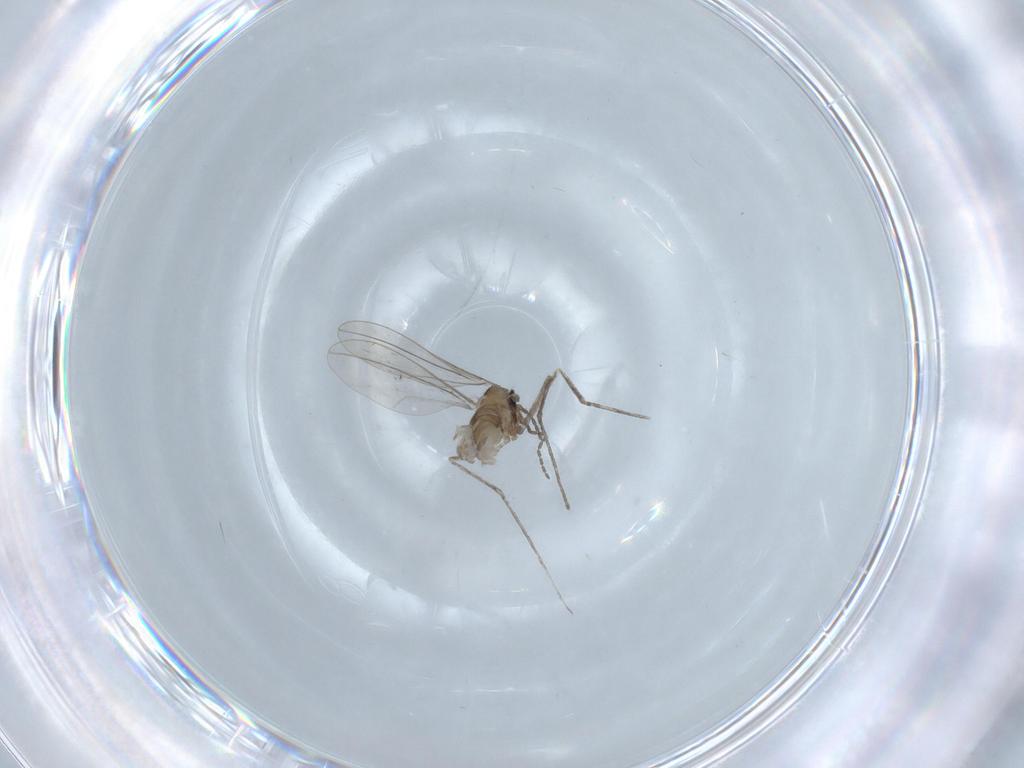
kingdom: Animalia
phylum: Arthropoda
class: Insecta
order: Diptera
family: Cecidomyiidae
